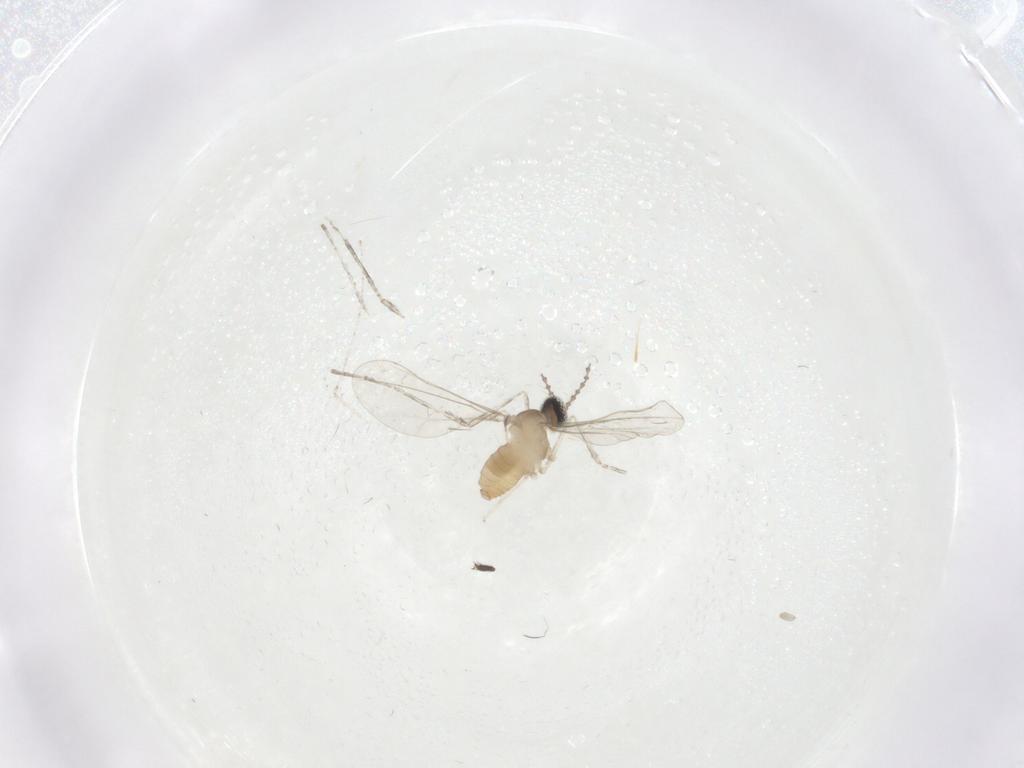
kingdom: Animalia
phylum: Arthropoda
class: Insecta
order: Diptera
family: Cecidomyiidae
